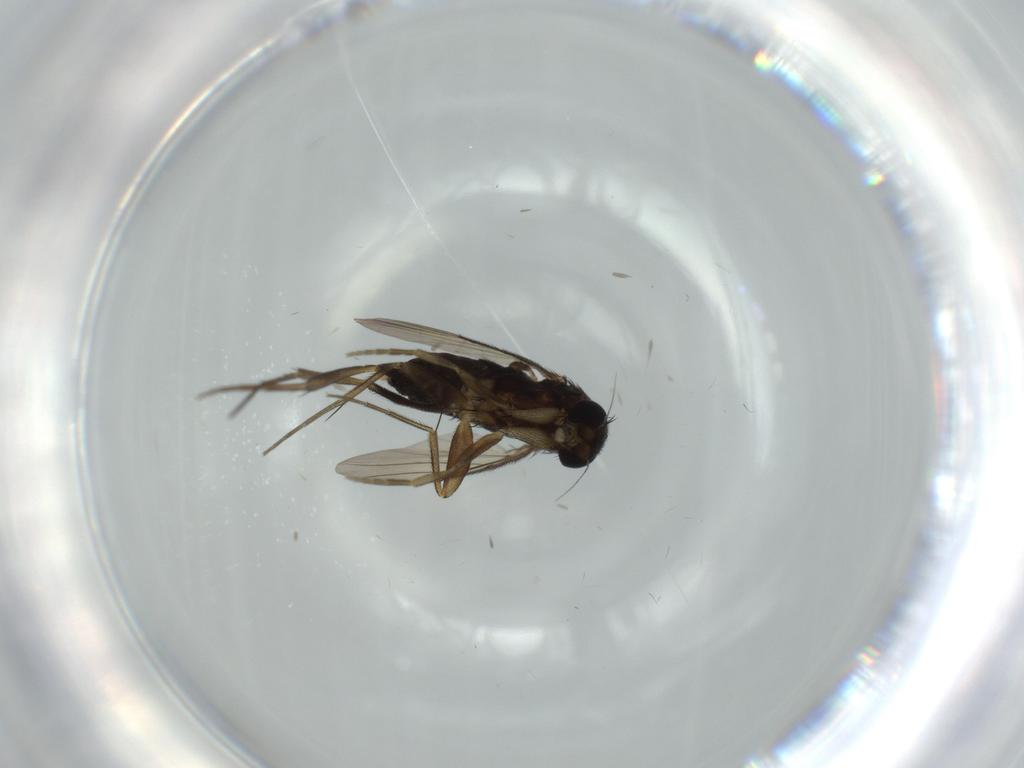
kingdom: Animalia
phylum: Arthropoda
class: Insecta
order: Diptera
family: Phoridae
